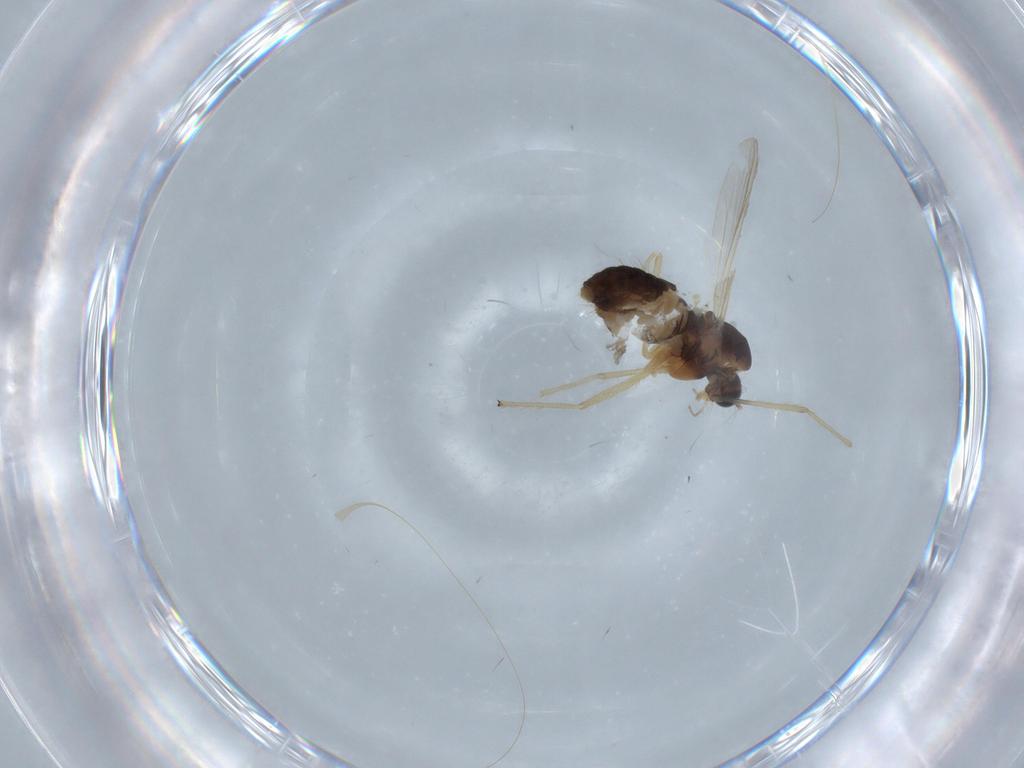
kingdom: Animalia
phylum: Arthropoda
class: Insecta
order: Diptera
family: Chironomidae
